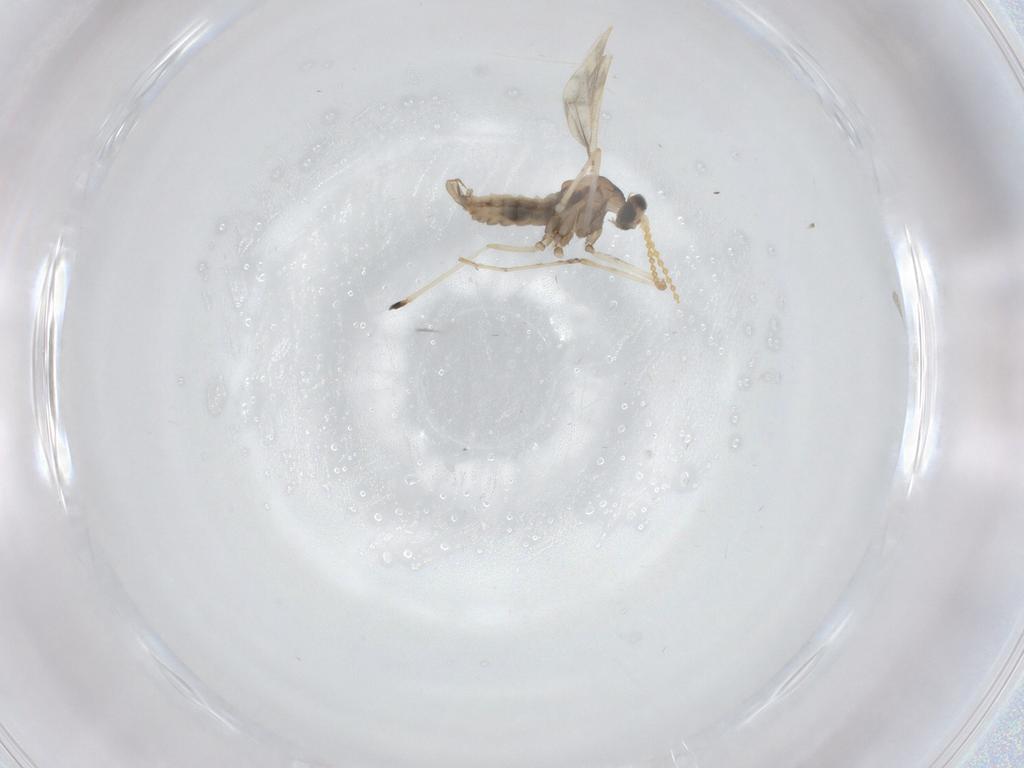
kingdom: Animalia
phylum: Arthropoda
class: Insecta
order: Diptera
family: Cecidomyiidae
